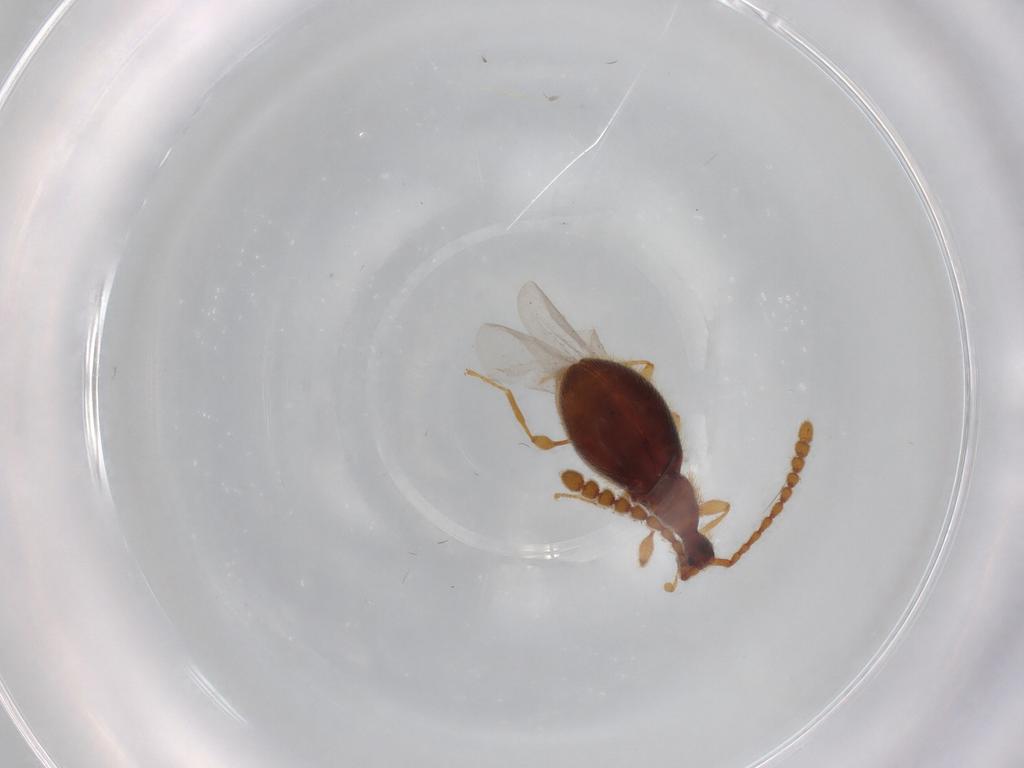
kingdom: Animalia
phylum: Arthropoda
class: Insecta
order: Coleoptera
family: Staphylinidae
